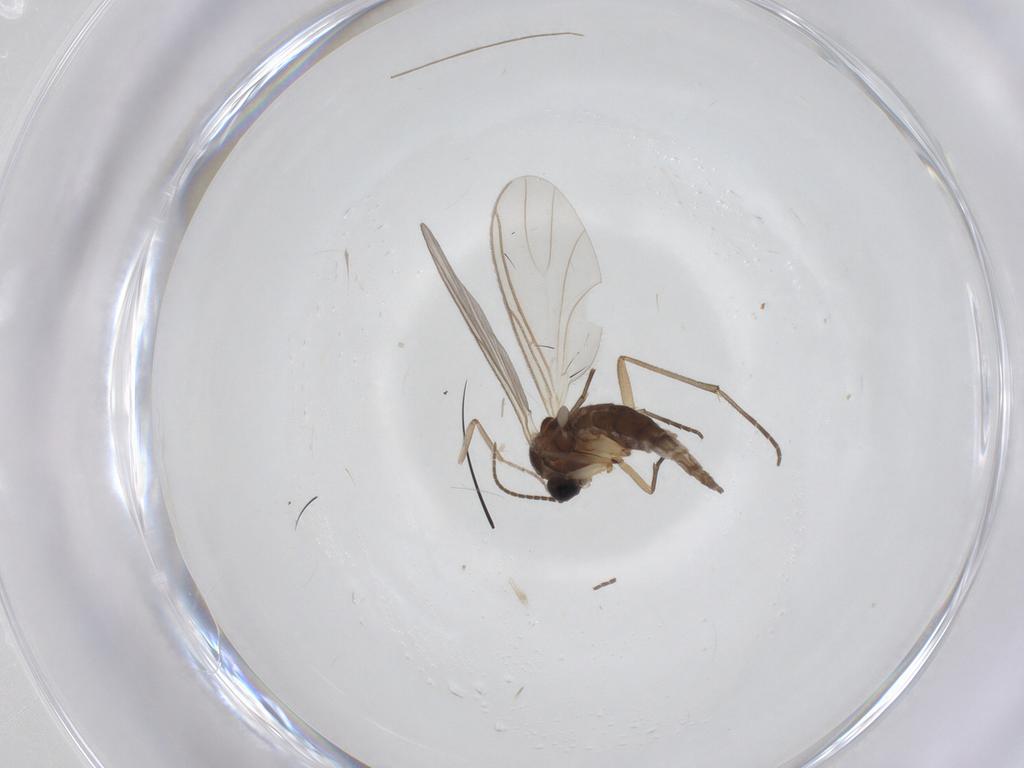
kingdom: Animalia
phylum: Arthropoda
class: Insecta
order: Diptera
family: Sciaridae
